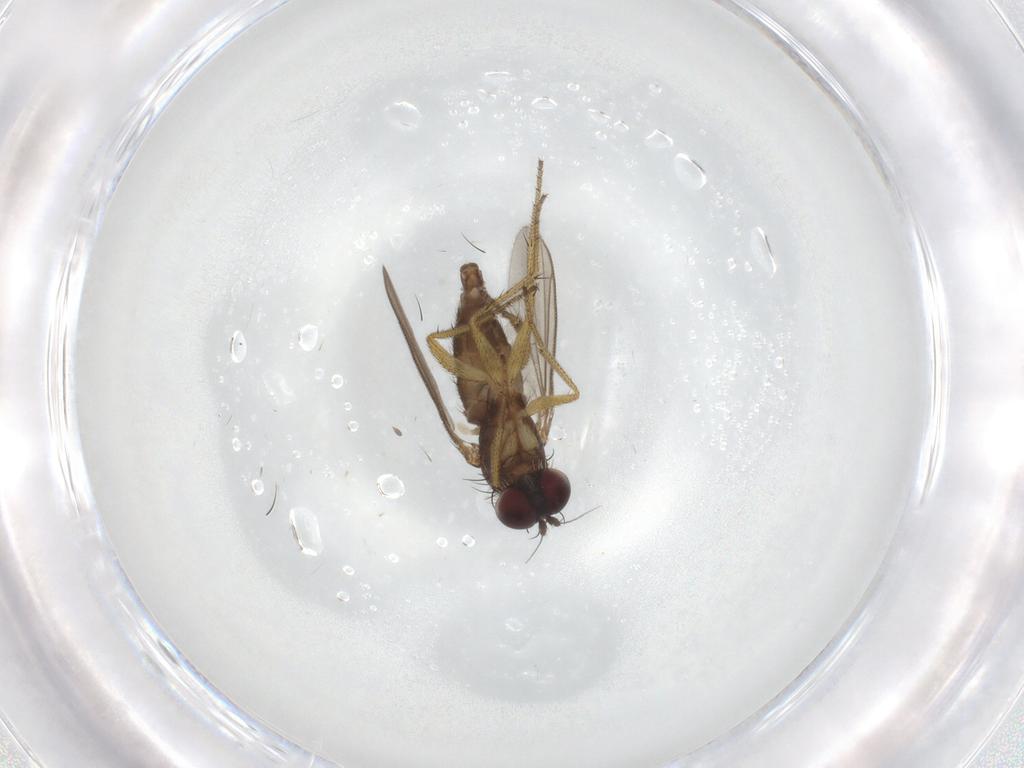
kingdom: Animalia
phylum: Arthropoda
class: Insecta
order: Diptera
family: Dolichopodidae
